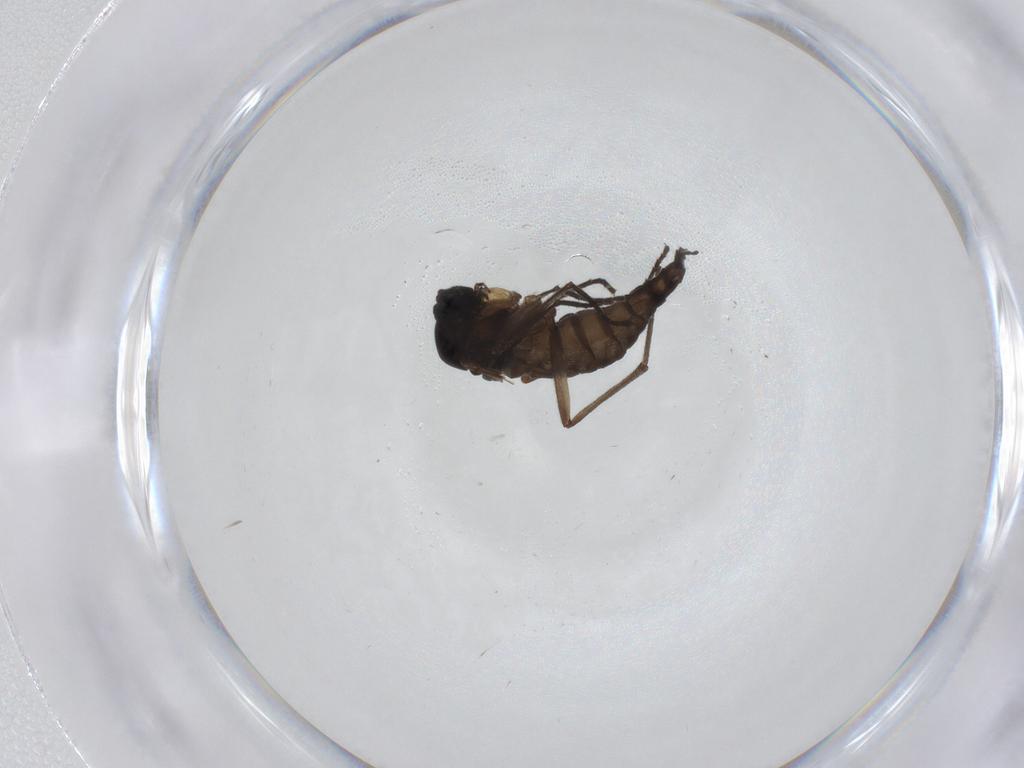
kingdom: Animalia
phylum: Arthropoda
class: Insecta
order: Diptera
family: Sciaridae
